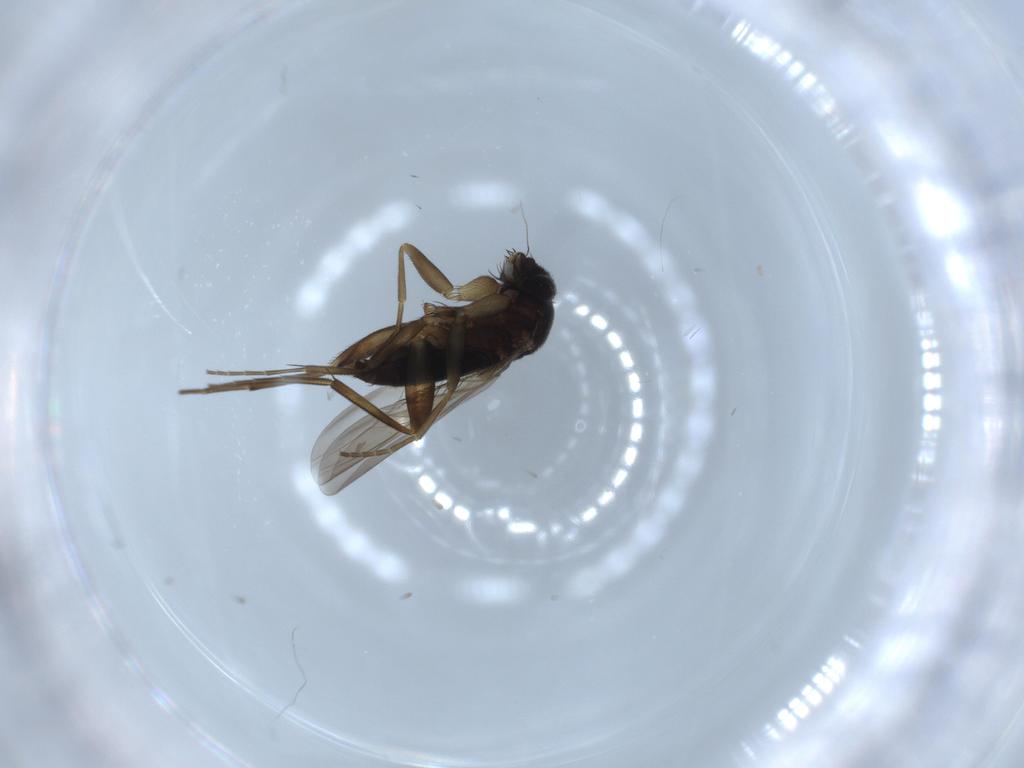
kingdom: Animalia
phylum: Arthropoda
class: Insecta
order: Diptera
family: Phoridae
